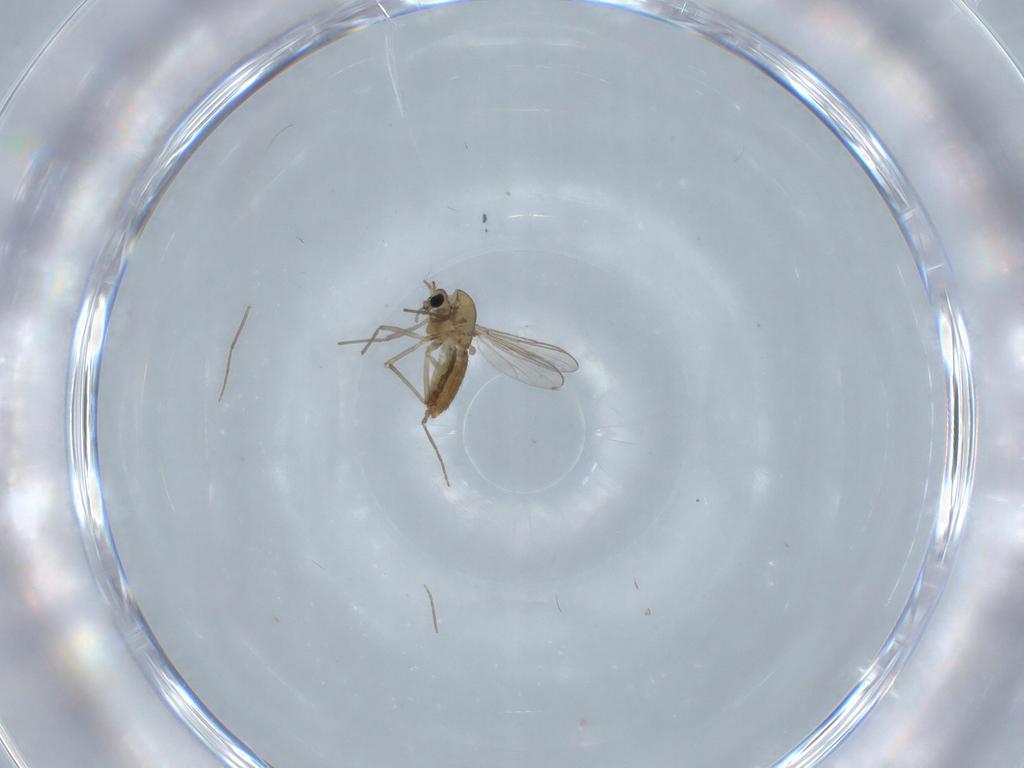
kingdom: Animalia
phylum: Arthropoda
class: Insecta
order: Diptera
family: Chironomidae
